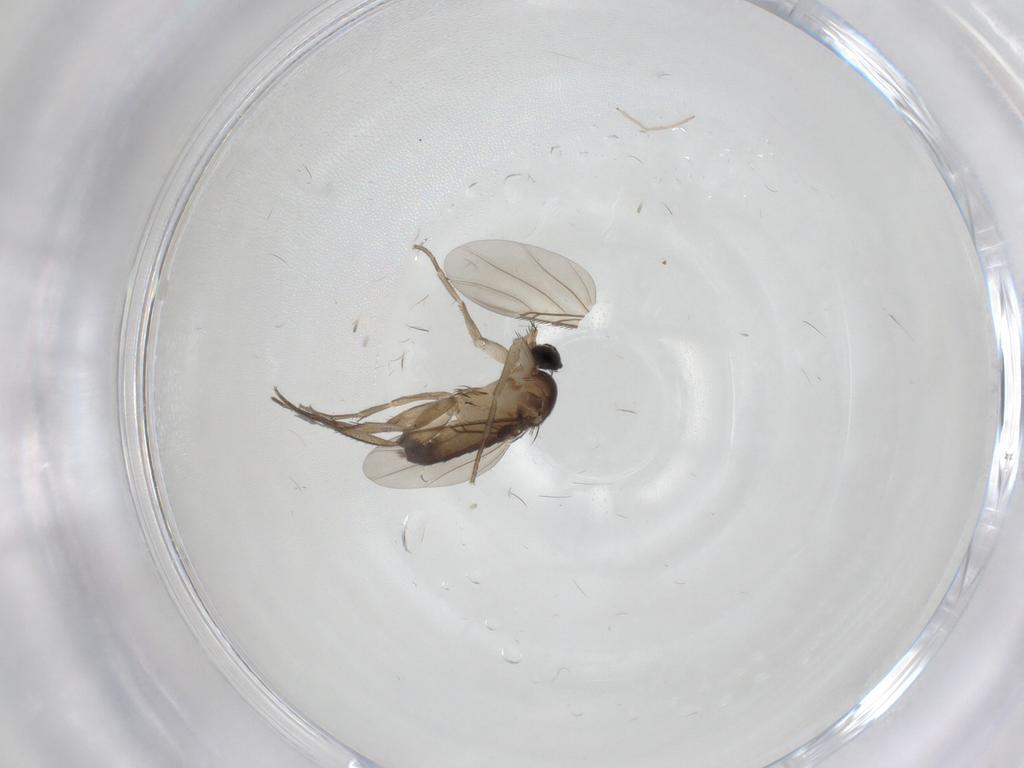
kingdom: Animalia
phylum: Arthropoda
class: Insecta
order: Diptera
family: Phoridae
